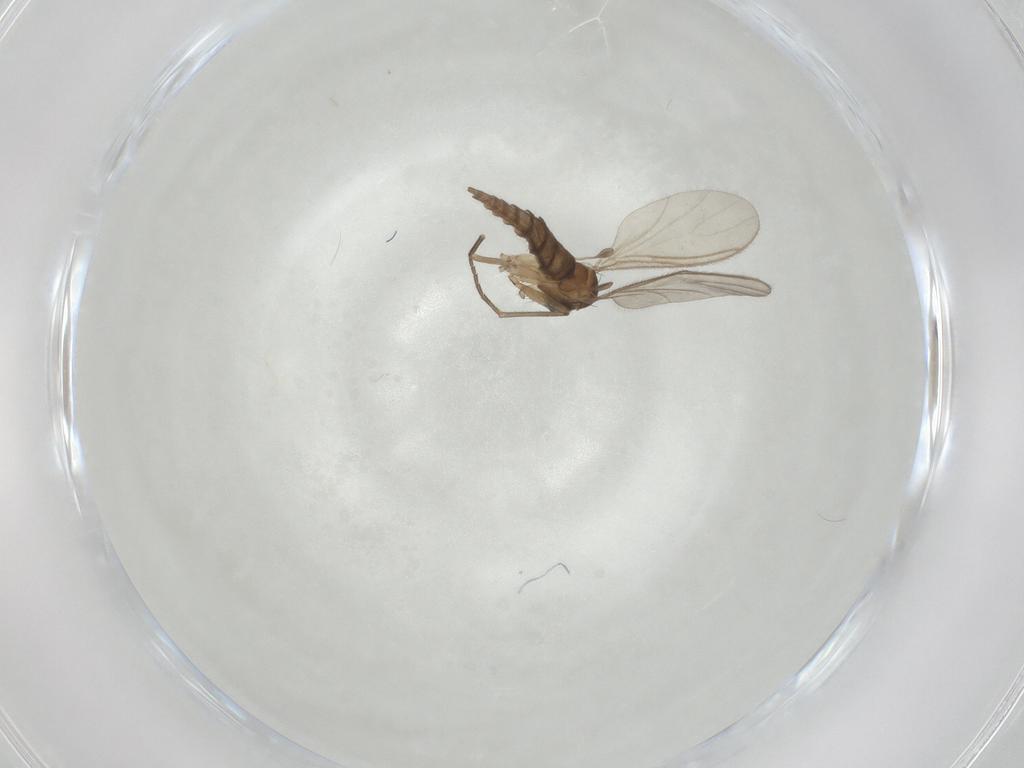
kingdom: Animalia
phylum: Arthropoda
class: Insecta
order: Diptera
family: Sciaridae
